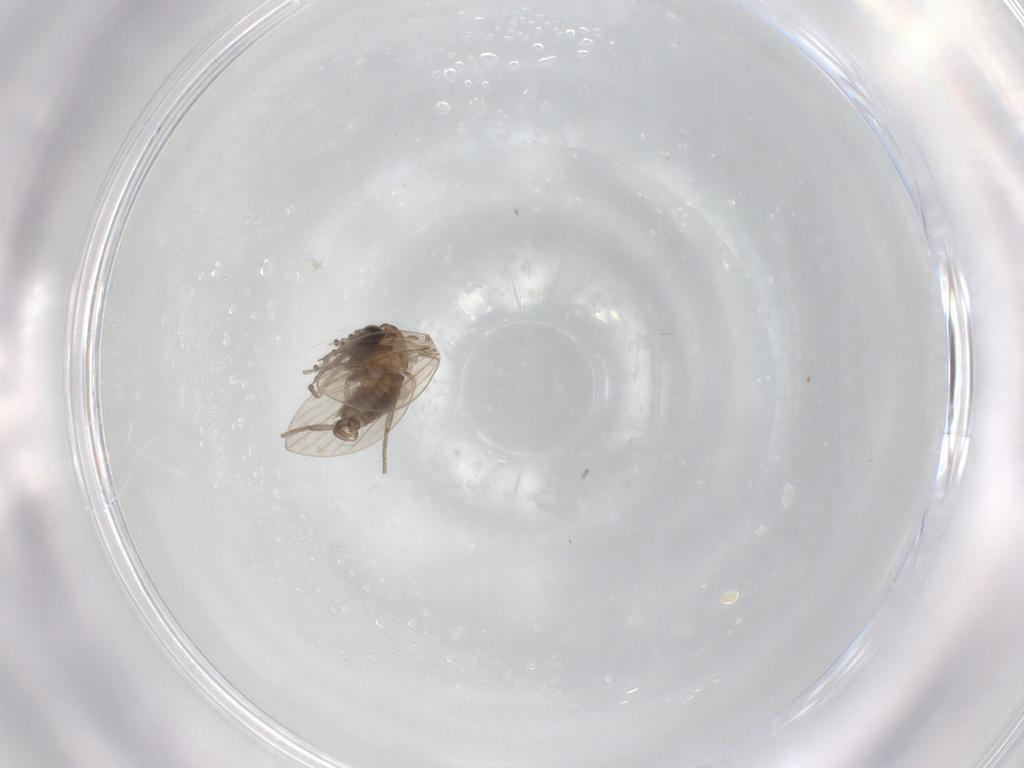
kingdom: Animalia
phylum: Arthropoda
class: Insecta
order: Diptera
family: Psychodidae
